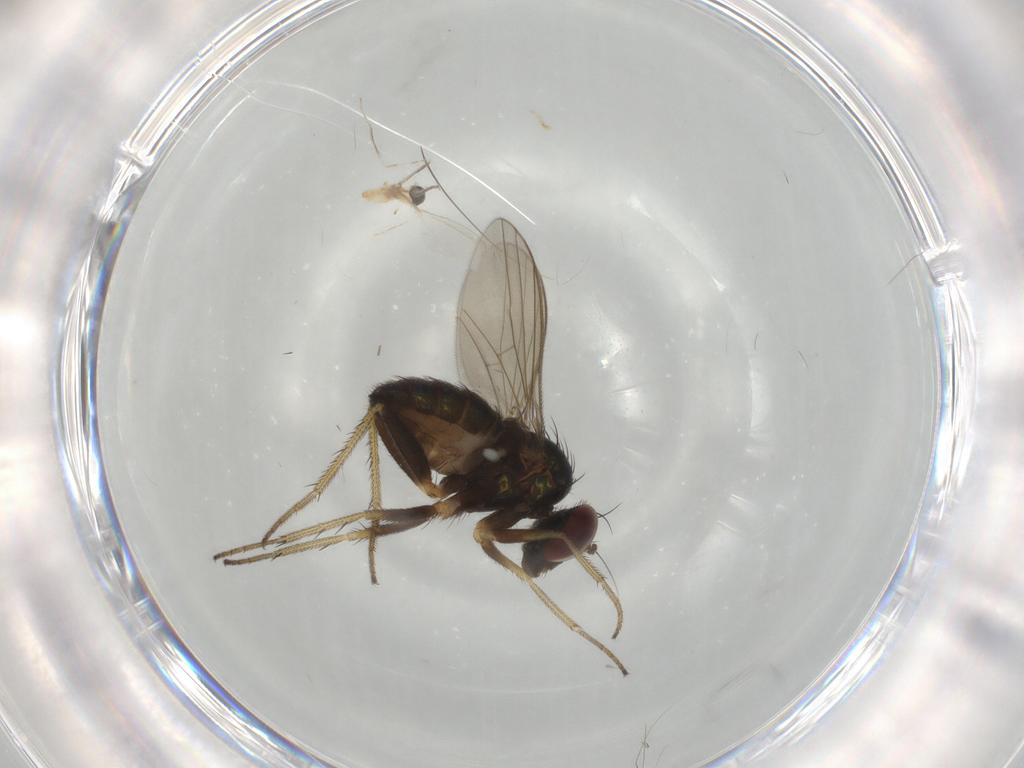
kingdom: Animalia
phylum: Arthropoda
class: Insecta
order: Diptera
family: Cecidomyiidae
